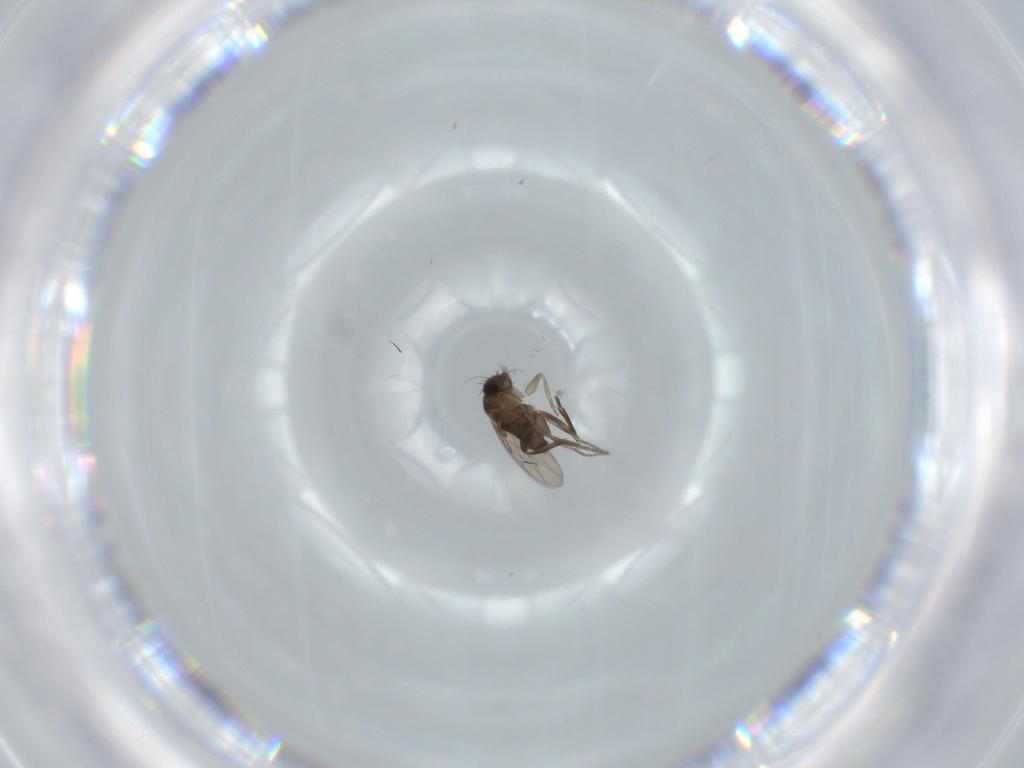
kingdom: Animalia
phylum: Arthropoda
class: Insecta
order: Diptera
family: Phoridae
